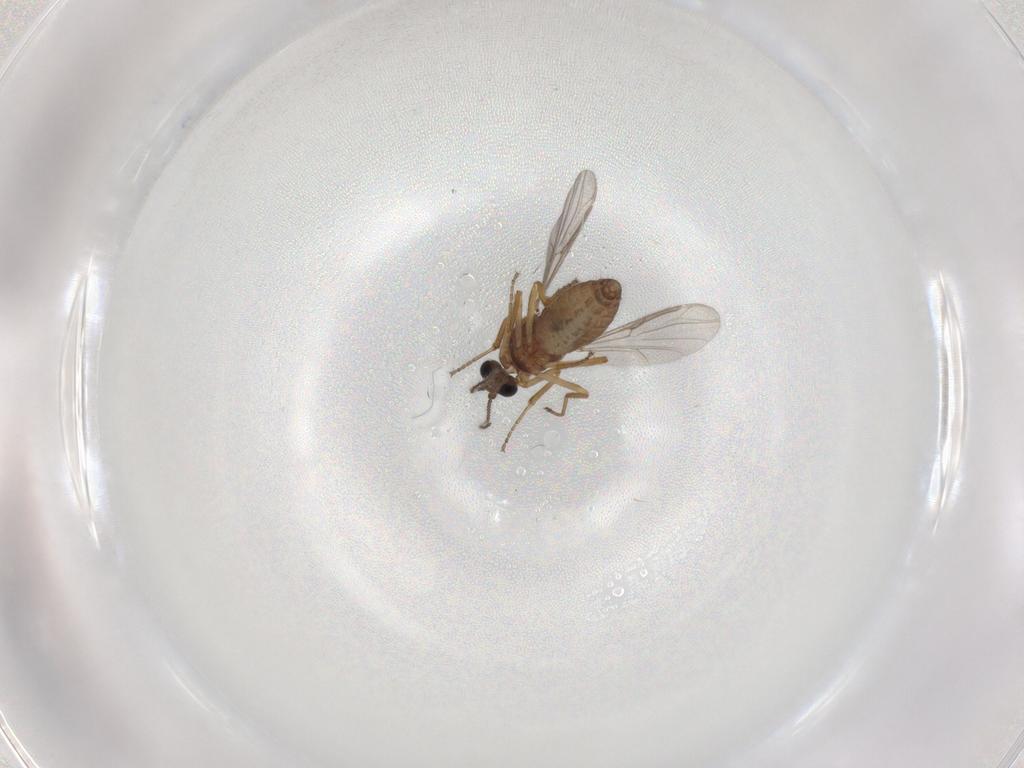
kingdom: Animalia
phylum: Arthropoda
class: Insecta
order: Diptera
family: Ceratopogonidae
